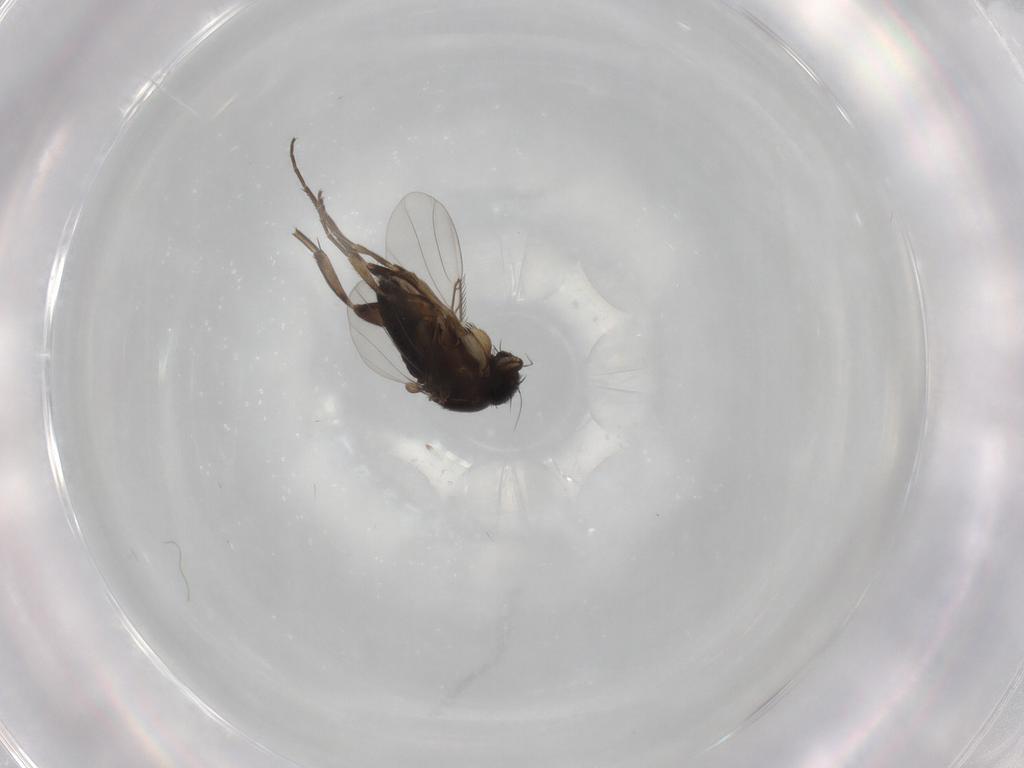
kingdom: Animalia
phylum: Arthropoda
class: Insecta
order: Diptera
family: Phoridae
